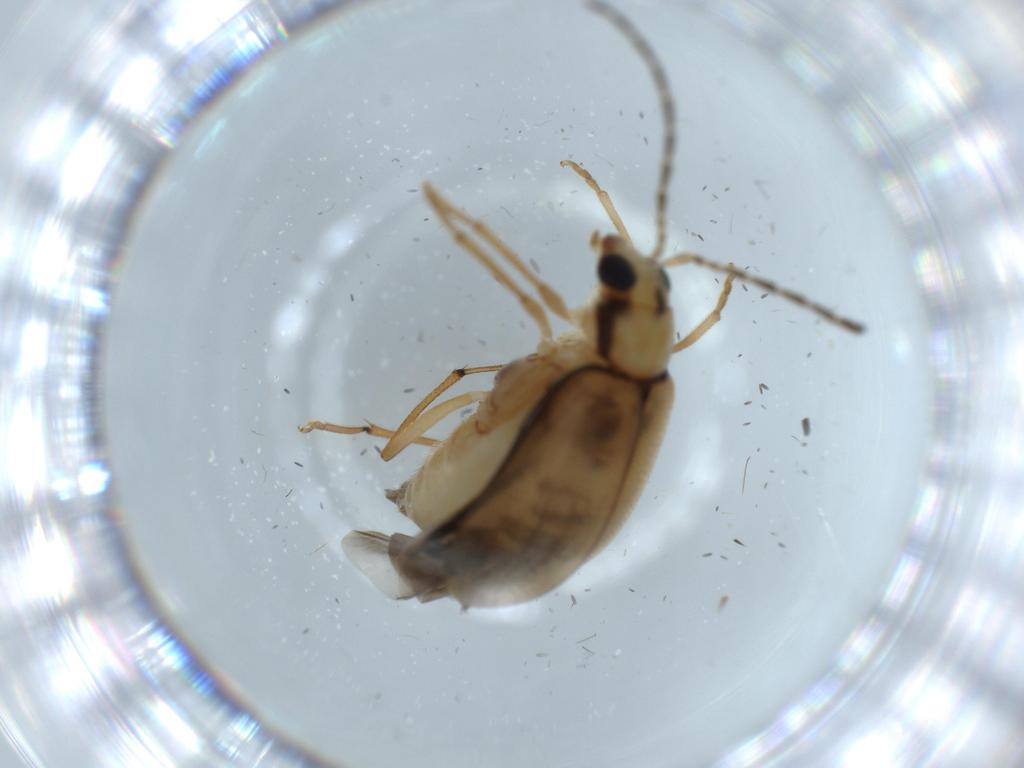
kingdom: Animalia
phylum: Arthropoda
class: Insecta
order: Coleoptera
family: Chrysomelidae
